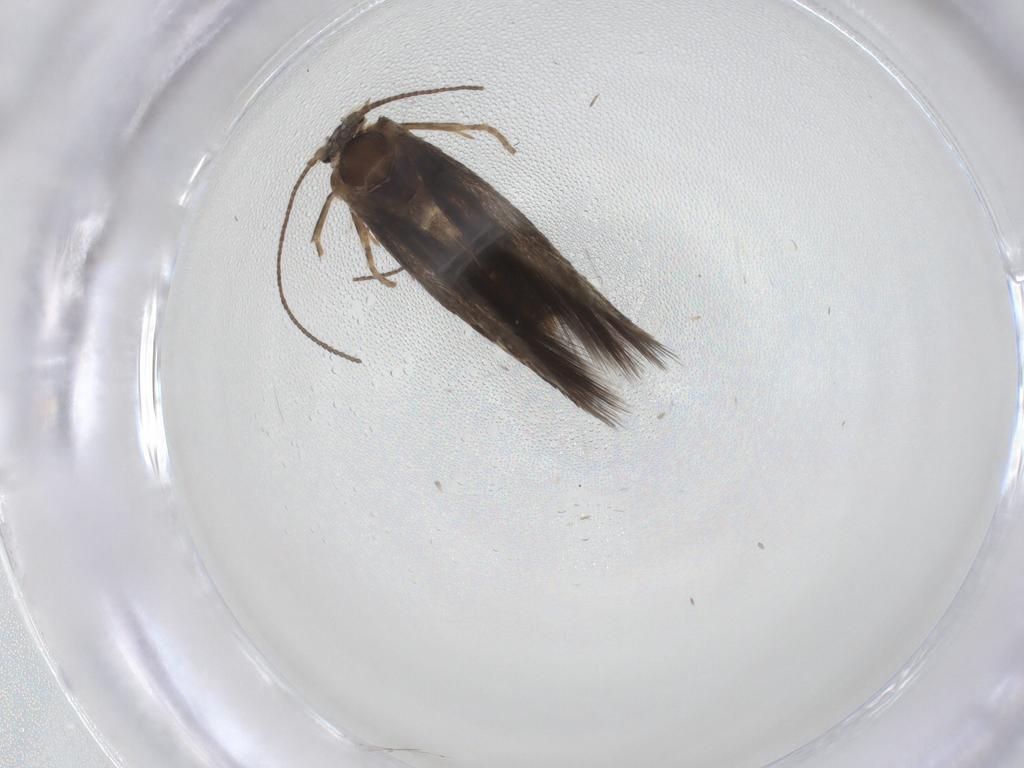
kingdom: Animalia
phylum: Arthropoda
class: Insecta
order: Lepidoptera
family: Nepticulidae
